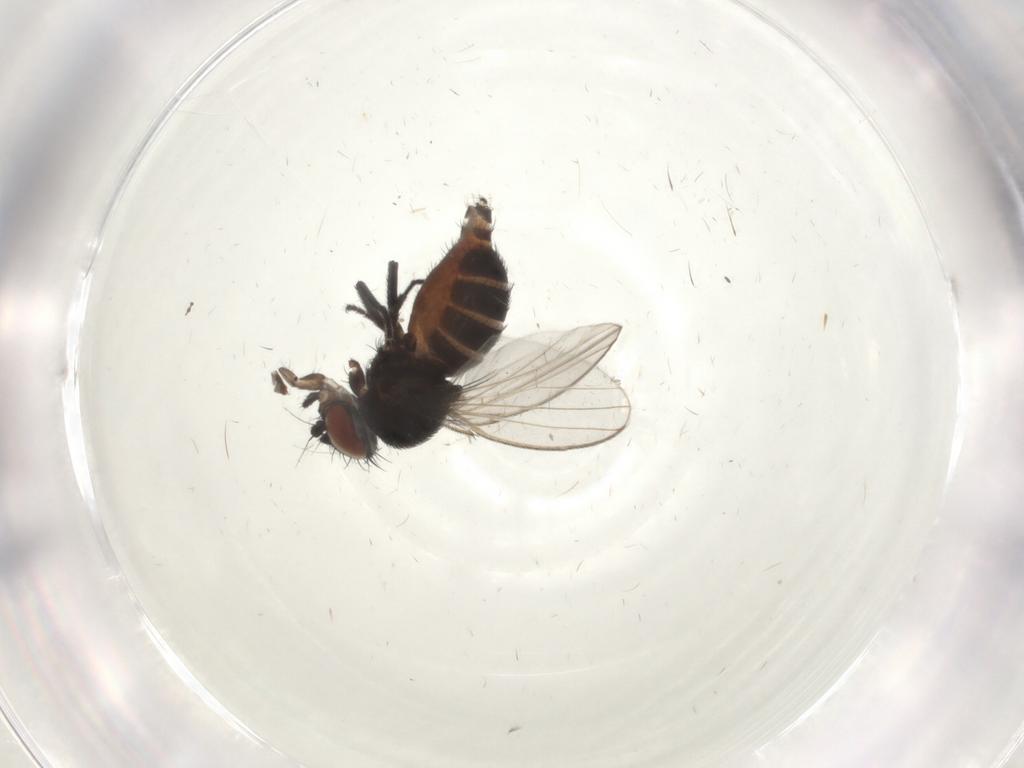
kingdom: Animalia
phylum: Arthropoda
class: Insecta
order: Diptera
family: Milichiidae
